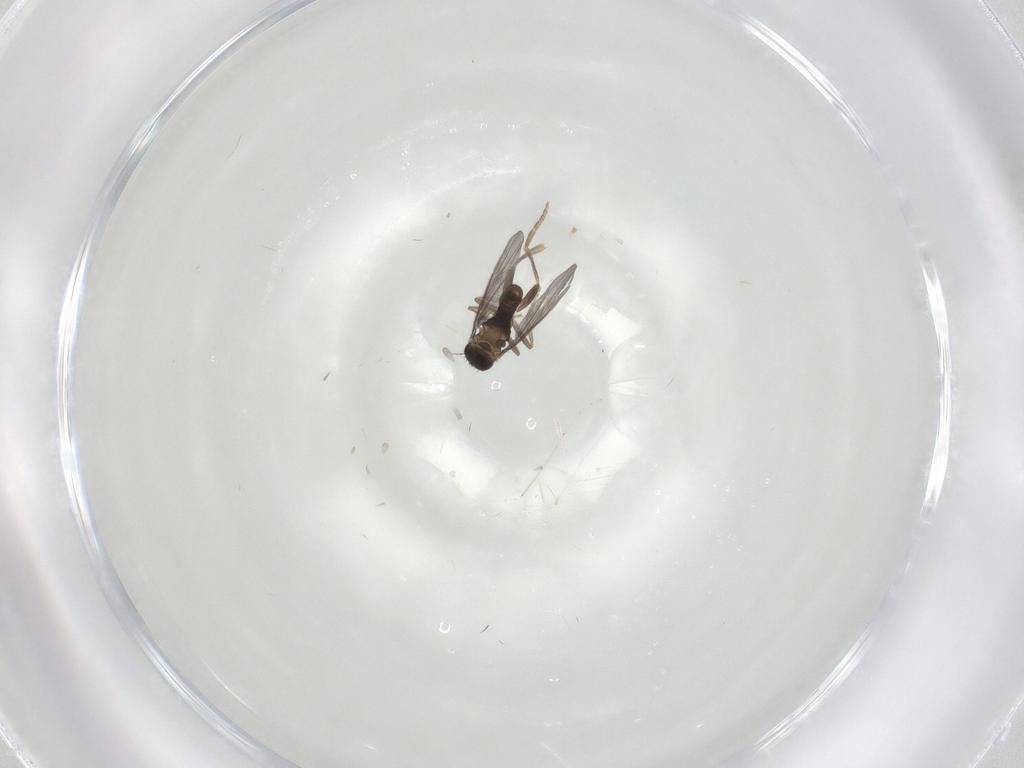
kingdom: Animalia
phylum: Arthropoda
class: Insecta
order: Diptera
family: Cecidomyiidae
